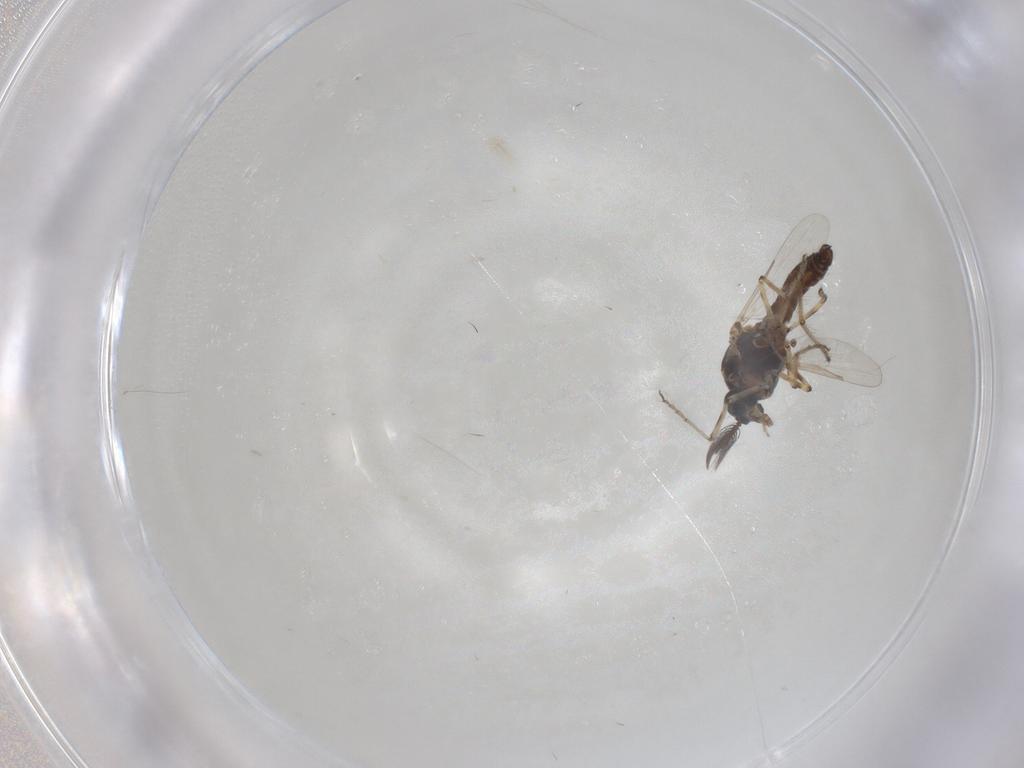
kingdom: Animalia
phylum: Arthropoda
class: Insecta
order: Diptera
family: Ceratopogonidae
